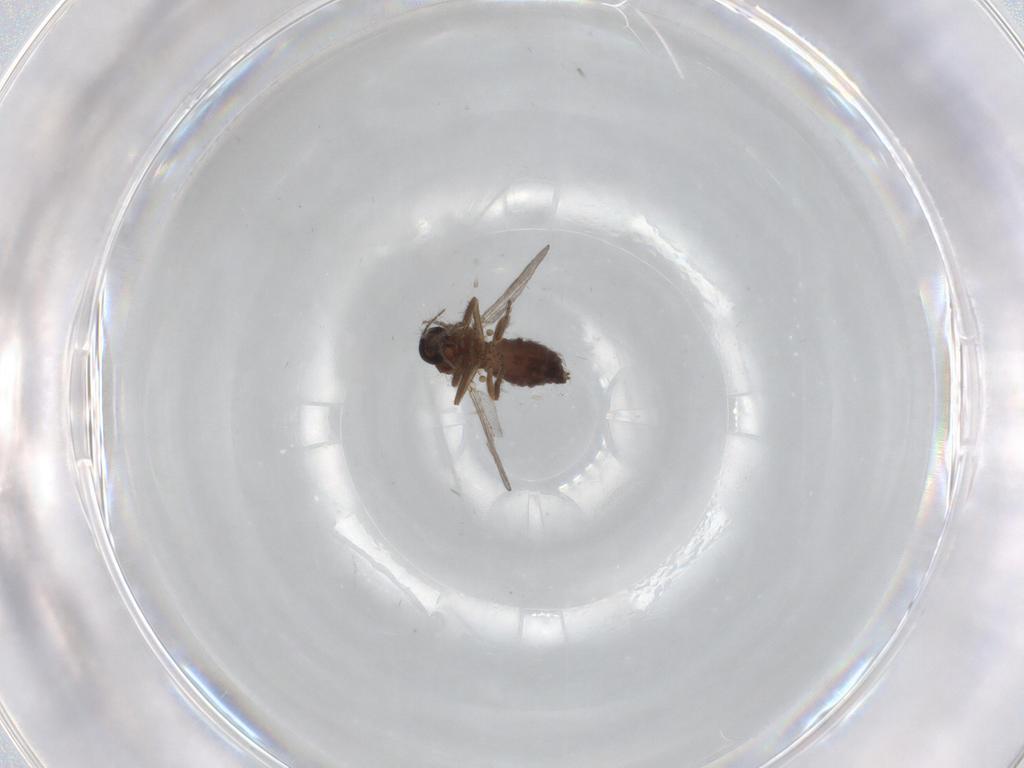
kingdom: Animalia
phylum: Arthropoda
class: Insecta
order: Diptera
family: Ceratopogonidae
